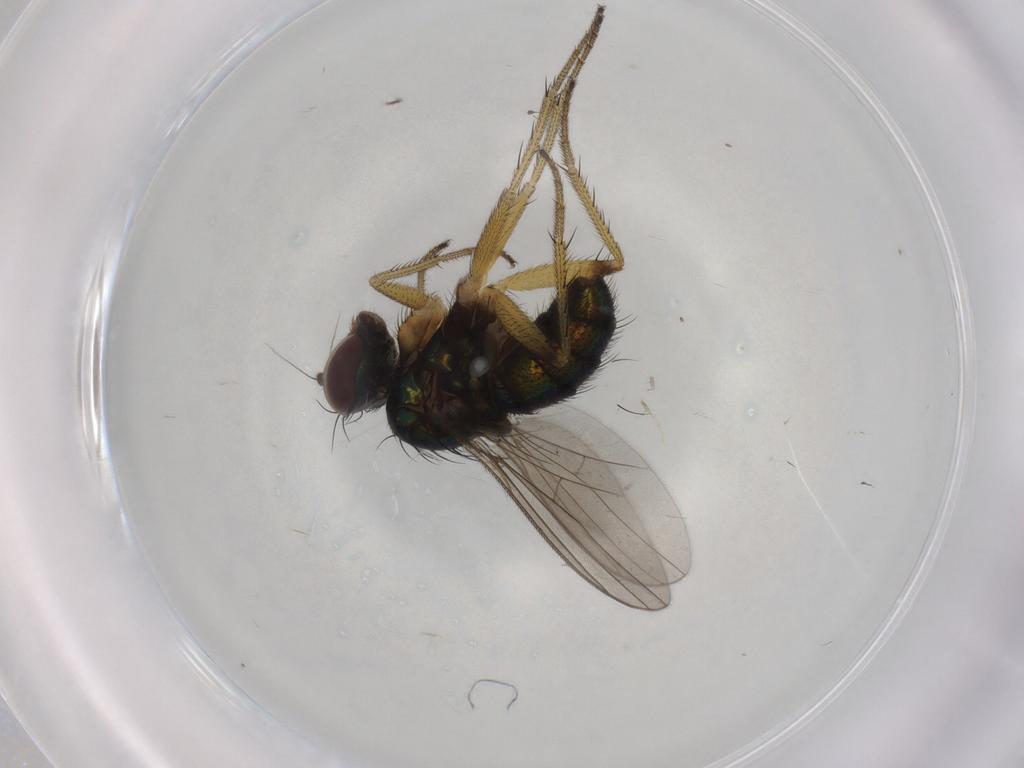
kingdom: Animalia
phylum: Arthropoda
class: Insecta
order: Diptera
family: Dolichopodidae
